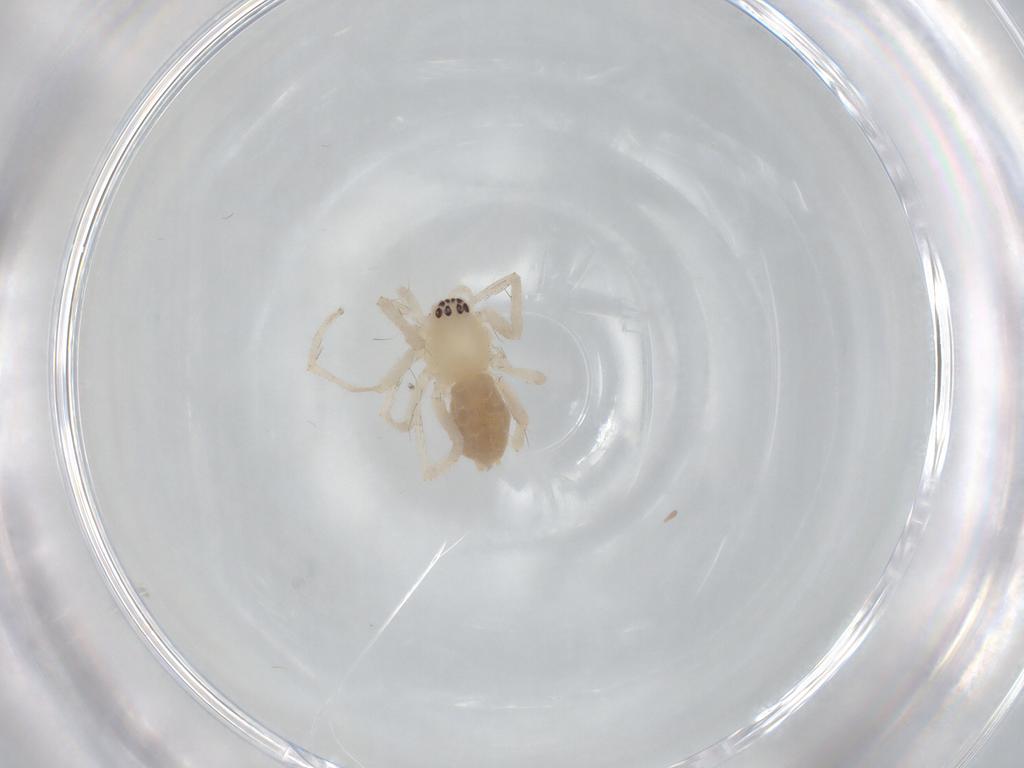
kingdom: Animalia
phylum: Arthropoda
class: Arachnida
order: Araneae
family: Anyphaenidae
